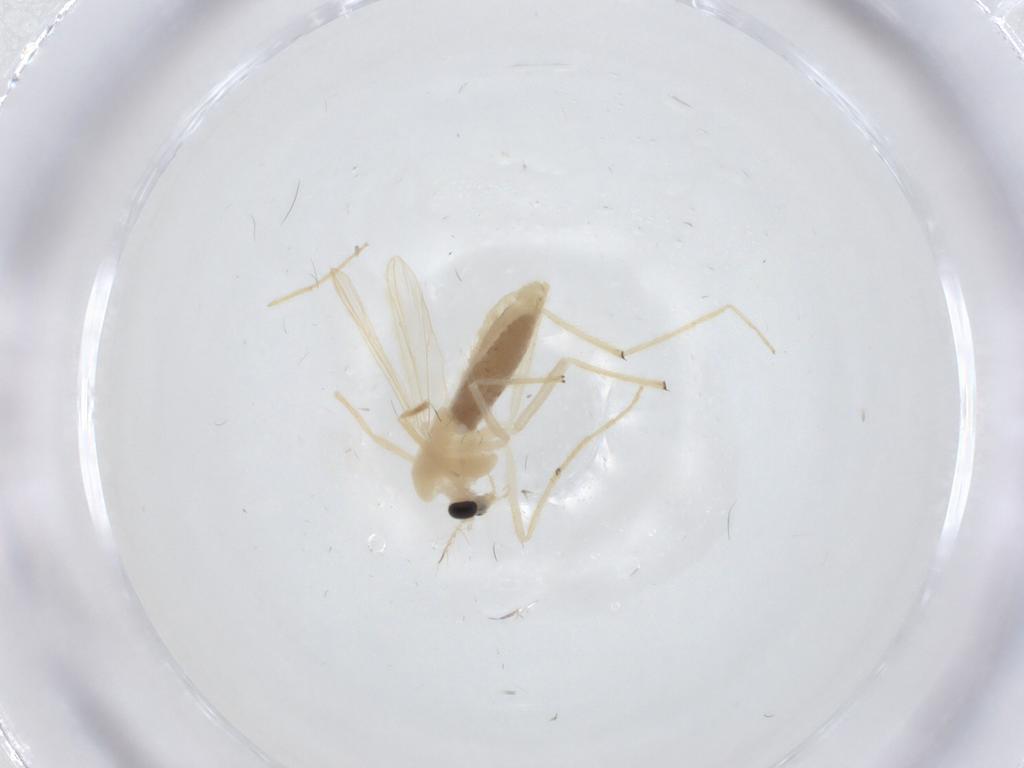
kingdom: Animalia
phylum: Arthropoda
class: Insecta
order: Diptera
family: Chironomidae
